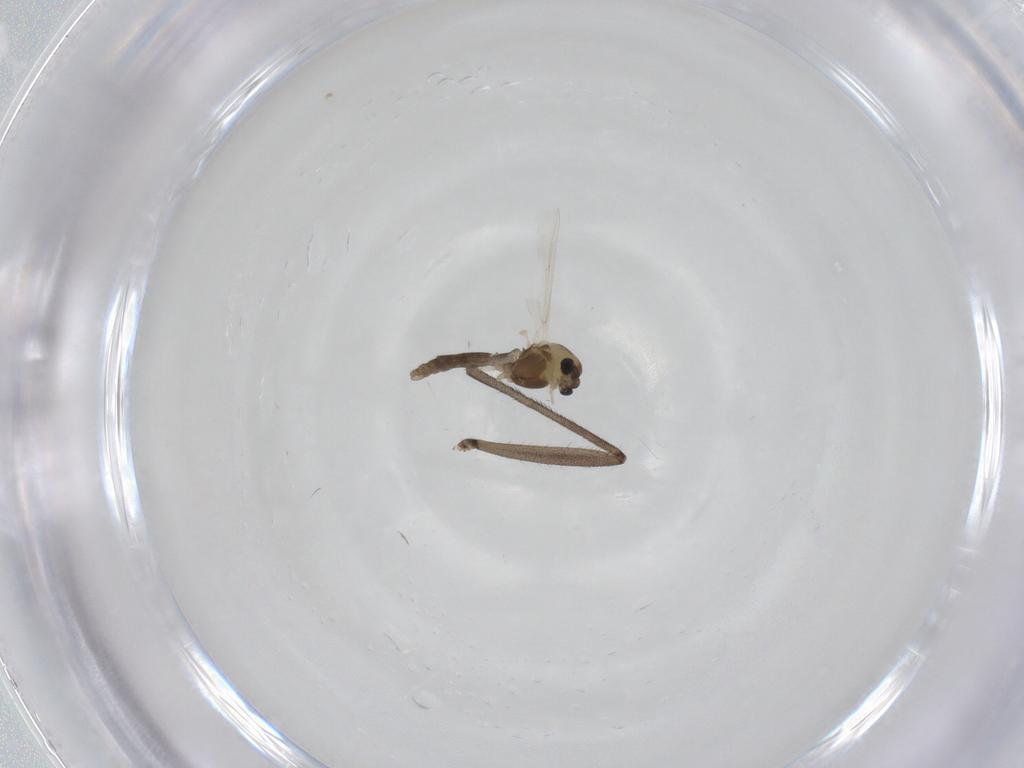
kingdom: Animalia
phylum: Arthropoda
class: Insecta
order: Diptera
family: Chironomidae
